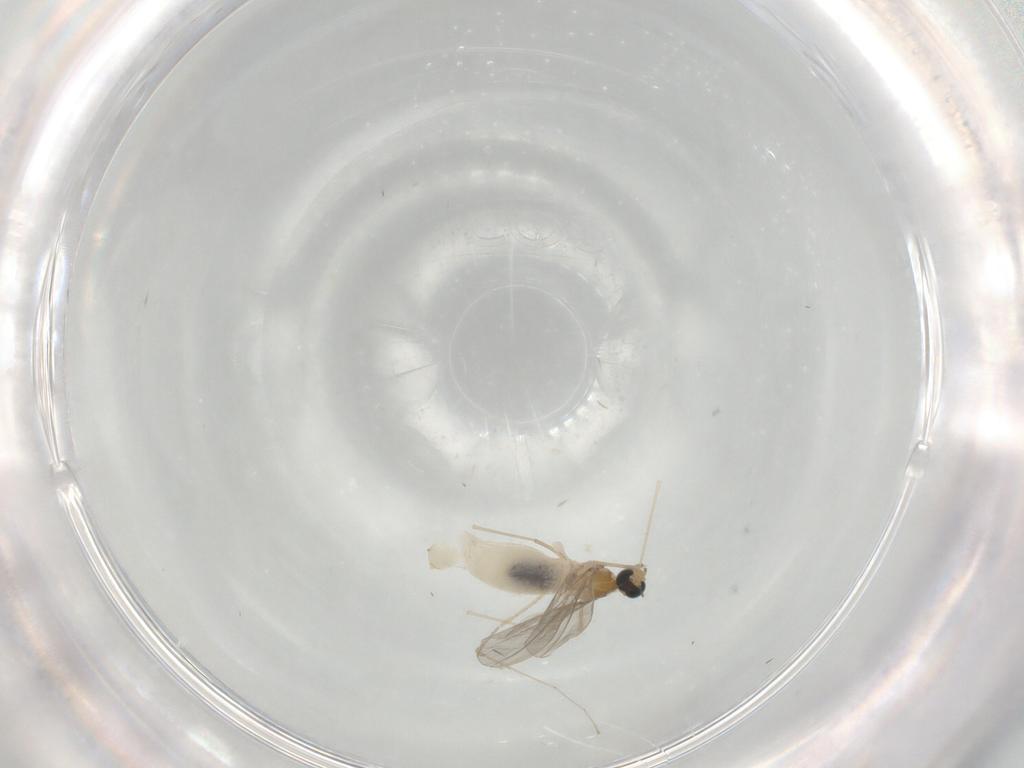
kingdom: Animalia
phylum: Arthropoda
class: Insecta
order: Diptera
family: Cecidomyiidae
